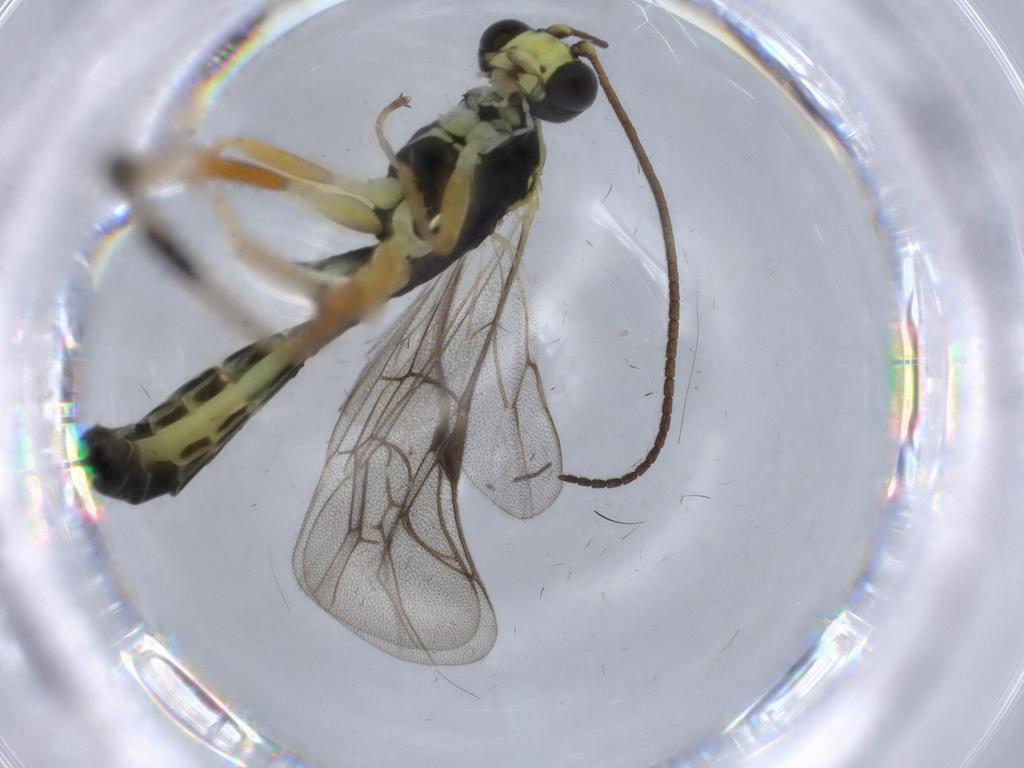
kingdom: Animalia
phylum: Arthropoda
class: Insecta
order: Hymenoptera
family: Braconidae
